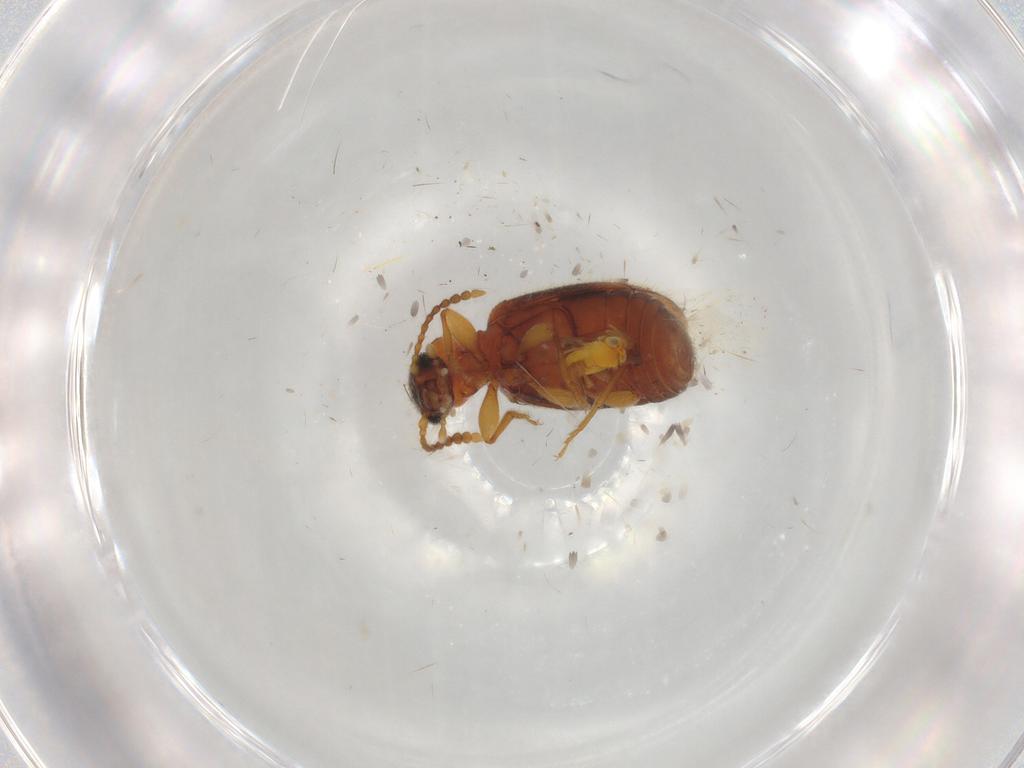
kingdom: Animalia
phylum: Arthropoda
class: Insecta
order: Coleoptera
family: Anthicidae
